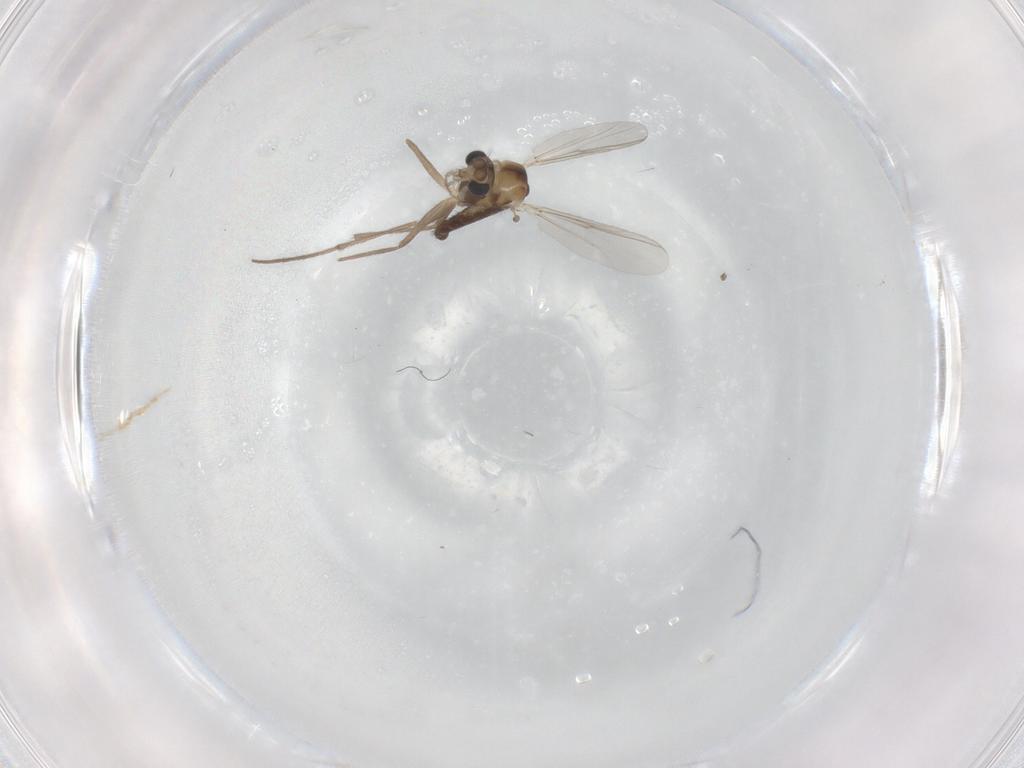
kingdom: Animalia
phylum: Arthropoda
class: Insecta
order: Diptera
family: Chironomidae
